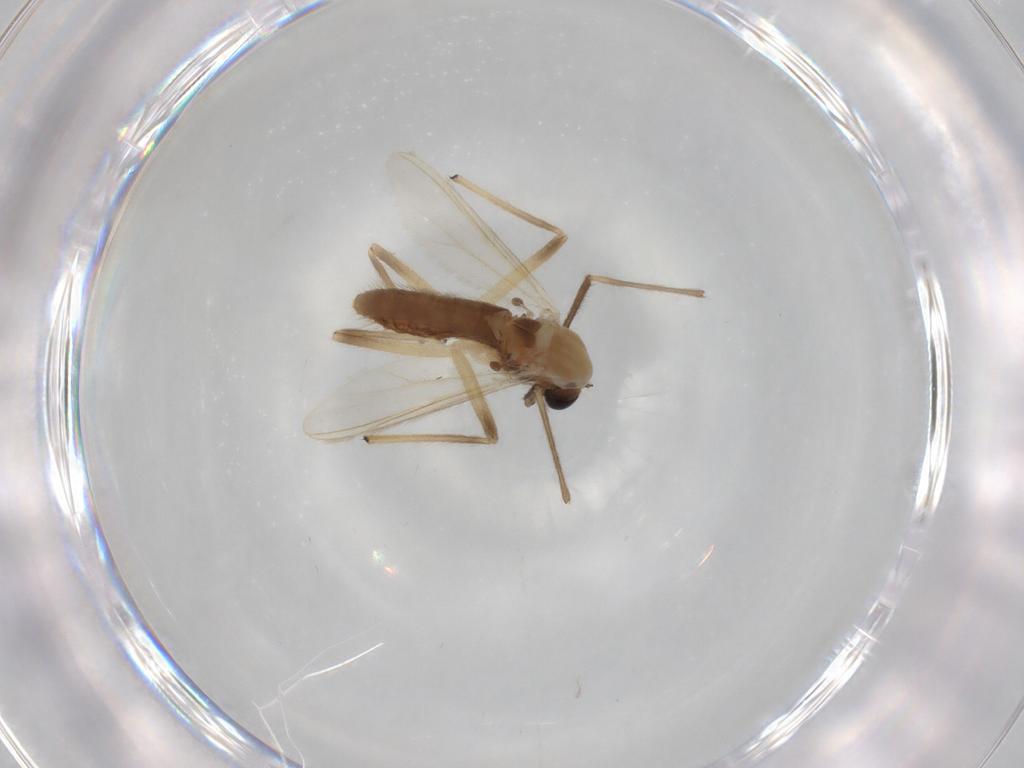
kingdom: Animalia
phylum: Arthropoda
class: Insecta
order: Diptera
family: Chironomidae
